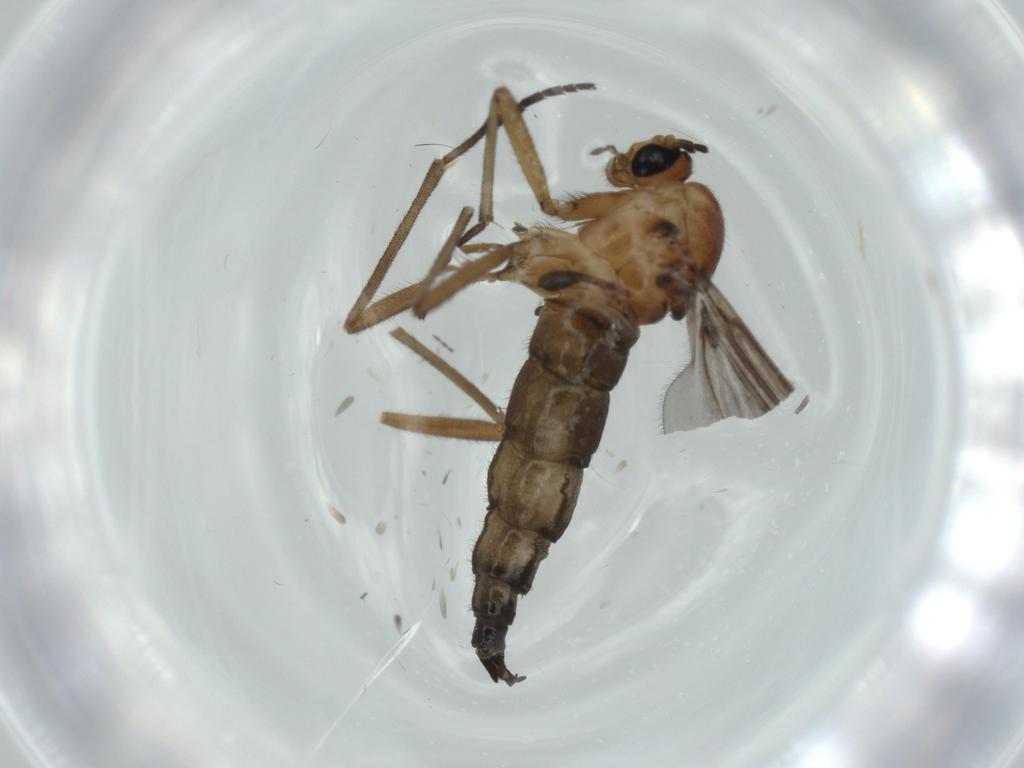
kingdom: Animalia
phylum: Arthropoda
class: Insecta
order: Diptera
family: Sciaridae
